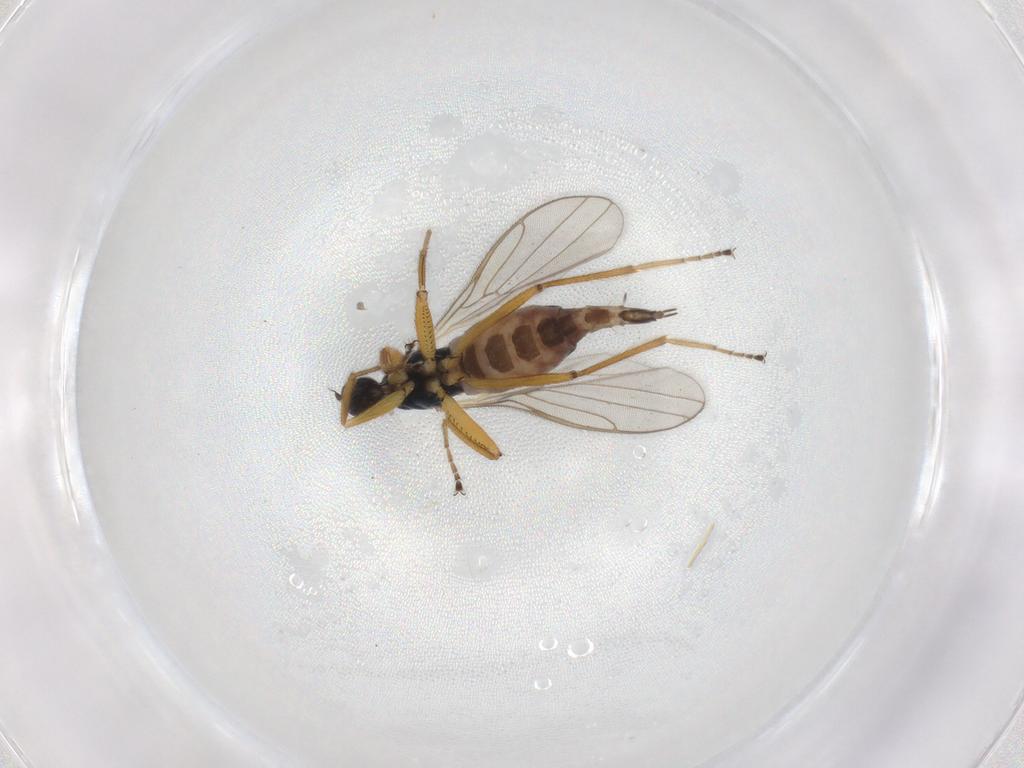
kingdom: Animalia
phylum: Arthropoda
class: Insecta
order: Diptera
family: Hybotidae
